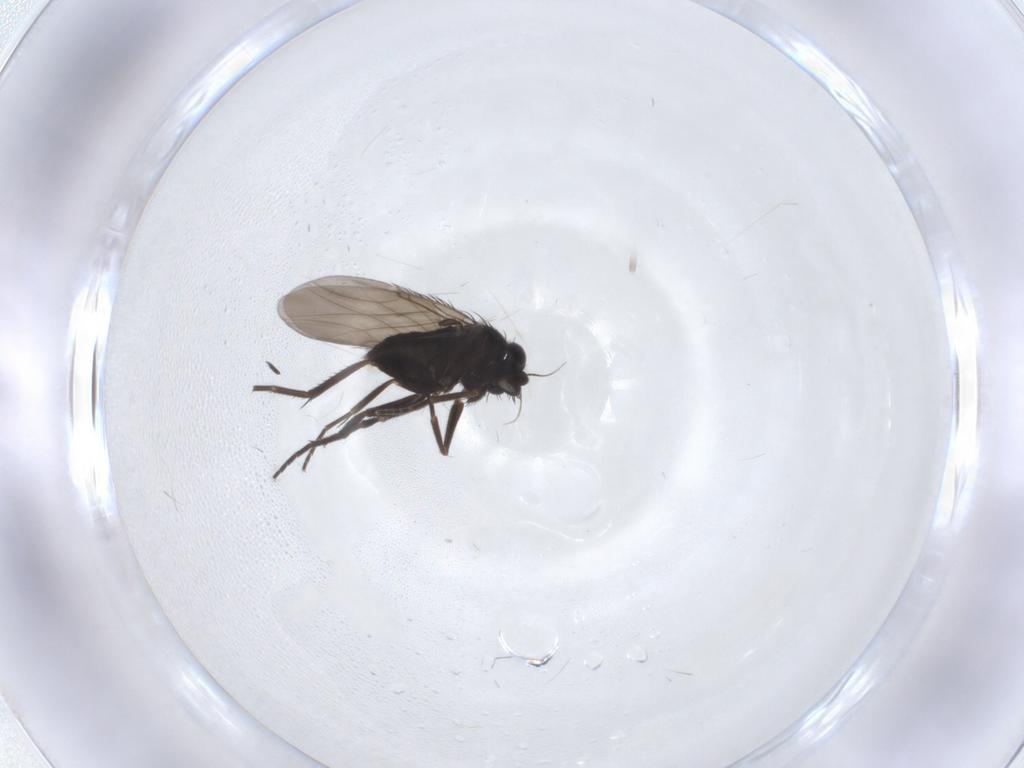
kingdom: Animalia
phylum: Arthropoda
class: Insecta
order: Diptera
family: Phoridae
